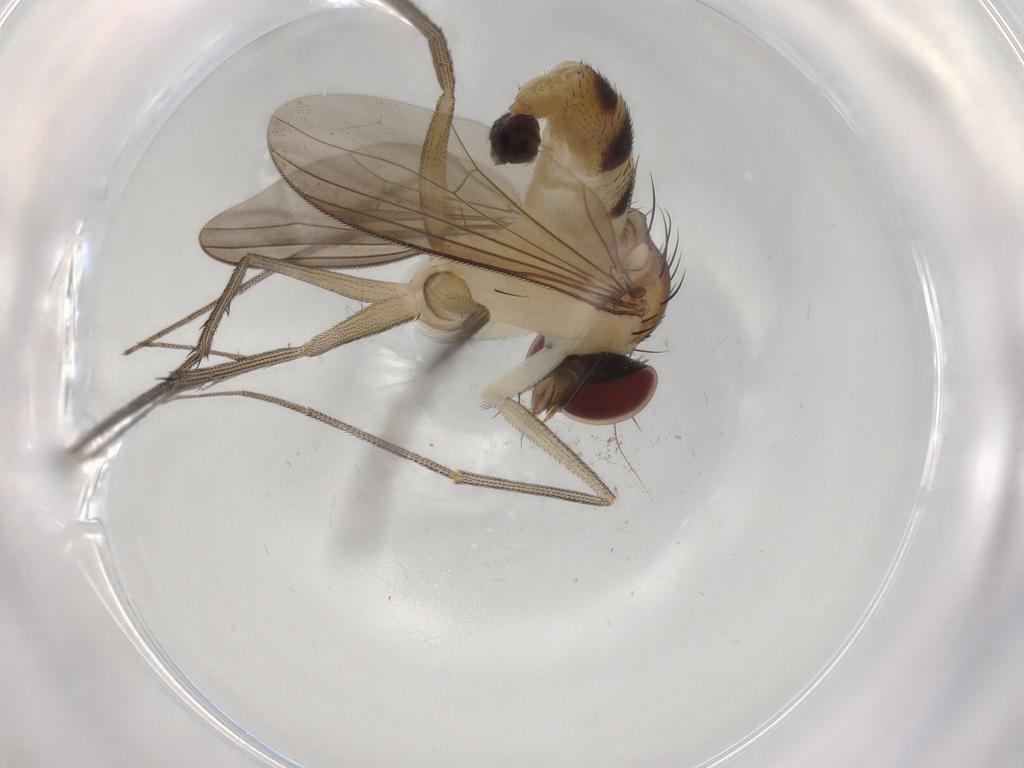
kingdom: Animalia
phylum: Arthropoda
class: Insecta
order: Diptera
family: Dolichopodidae
